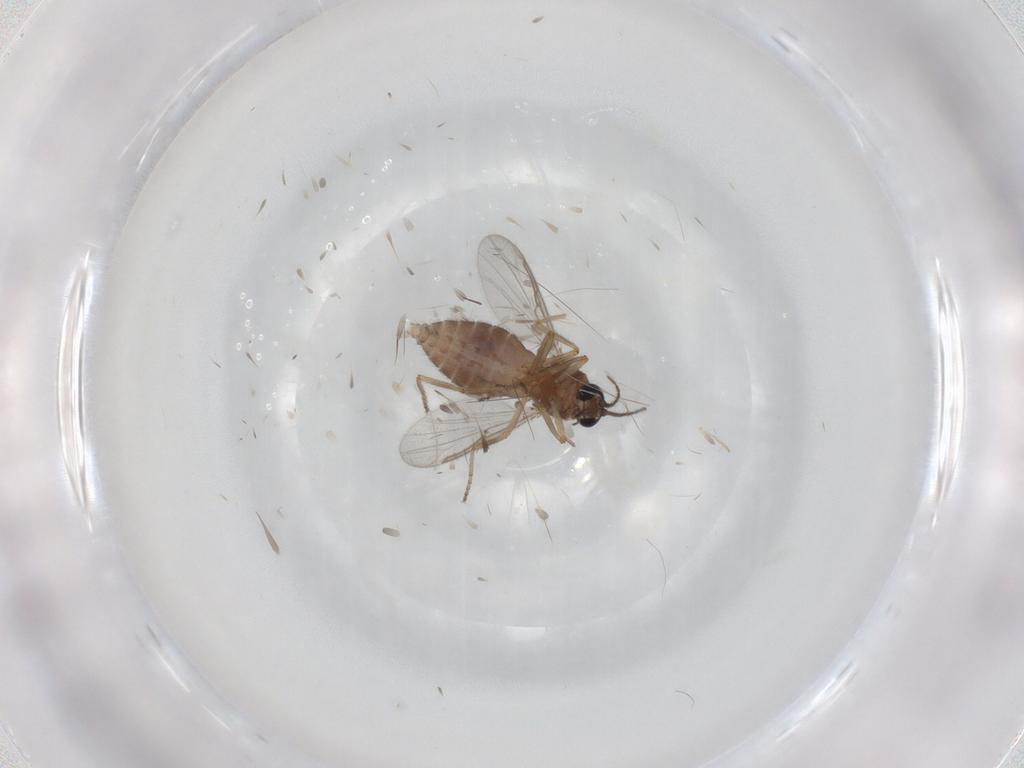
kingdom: Animalia
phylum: Arthropoda
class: Insecta
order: Diptera
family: Ceratopogonidae
